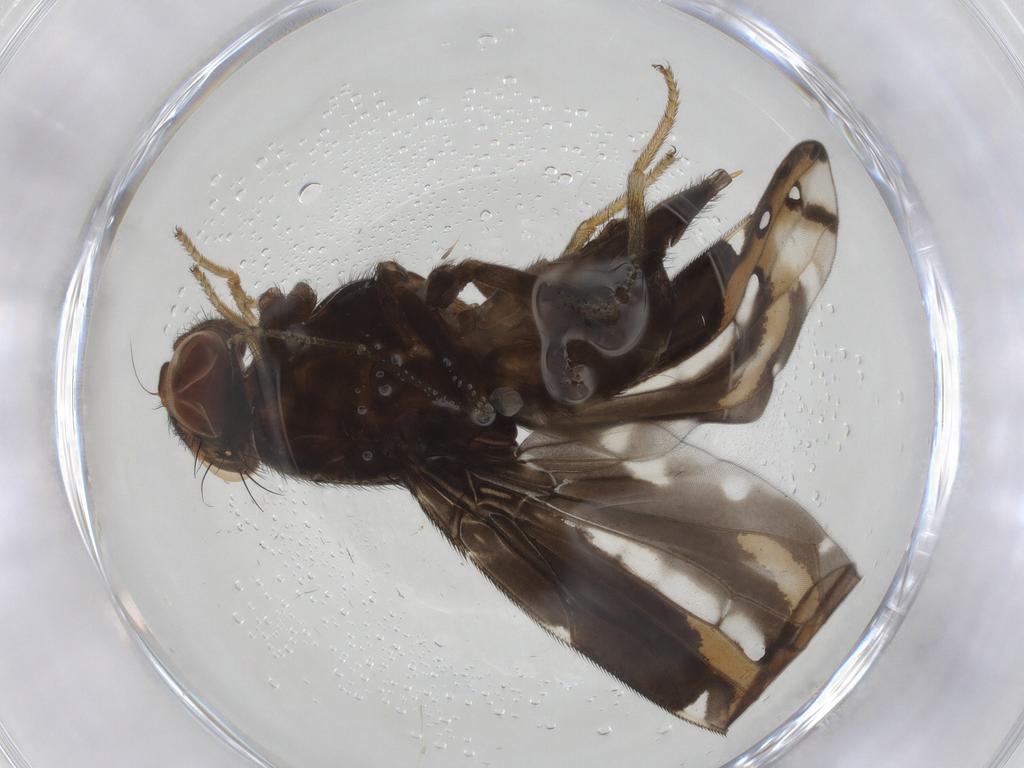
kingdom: Animalia
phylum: Arthropoda
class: Insecta
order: Diptera
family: Ulidiidae
